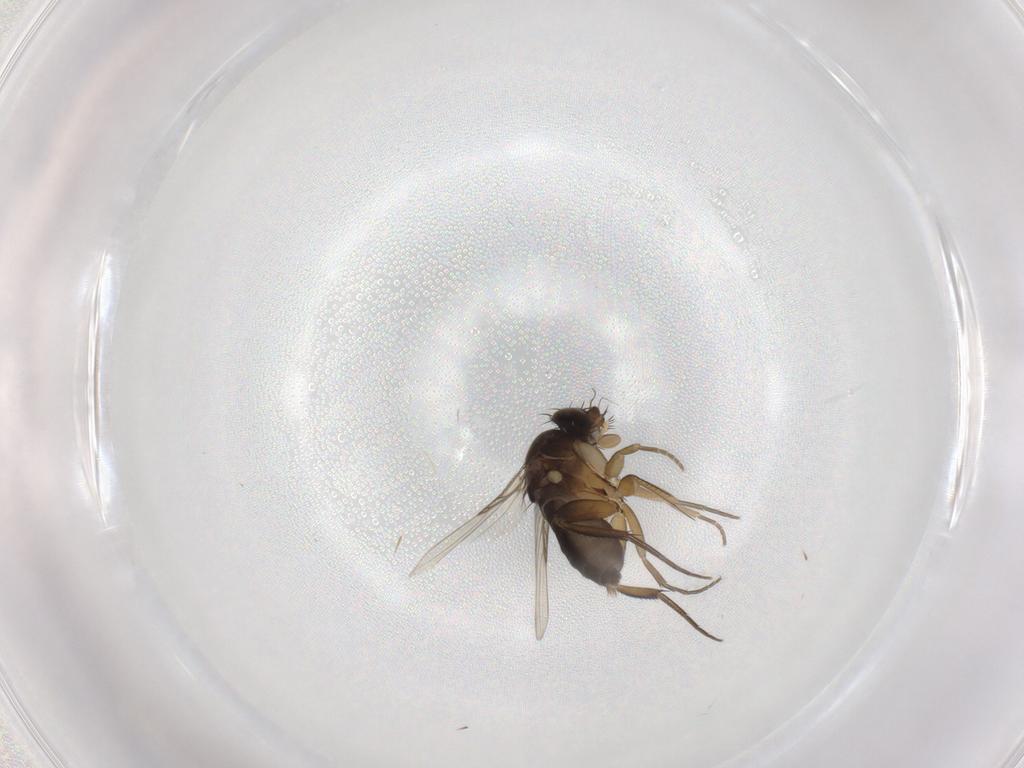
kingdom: Animalia
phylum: Arthropoda
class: Insecta
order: Diptera
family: Phoridae
